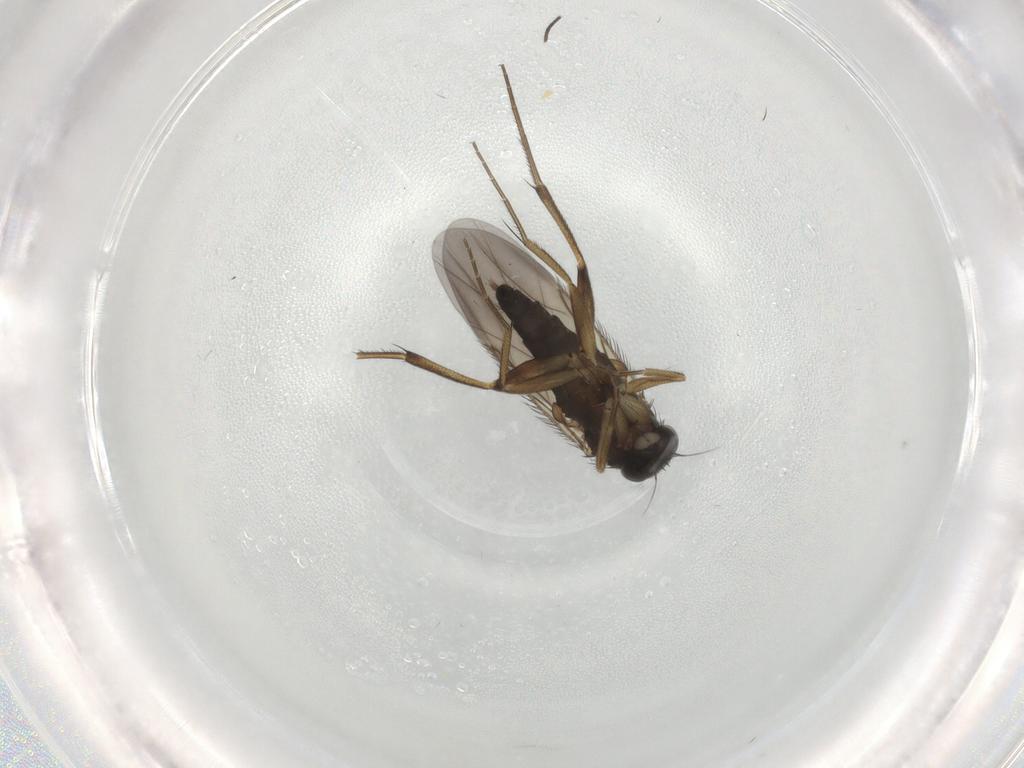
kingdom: Animalia
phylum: Arthropoda
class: Insecta
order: Diptera
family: Phoridae
